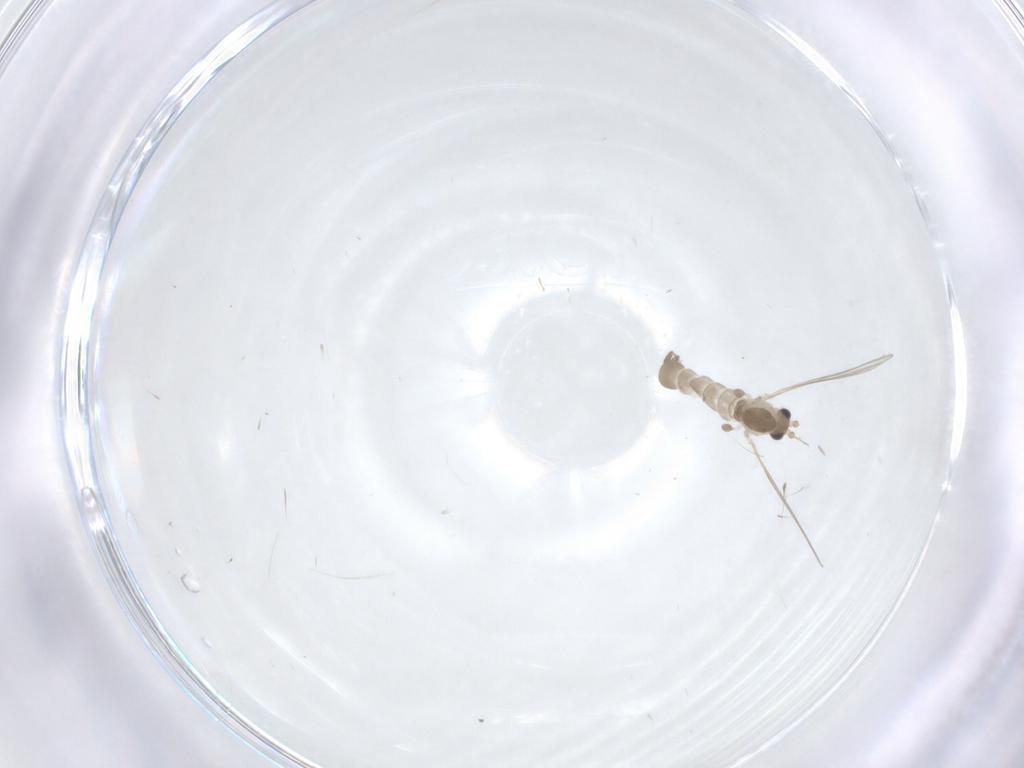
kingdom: Animalia
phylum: Arthropoda
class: Insecta
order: Diptera
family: Psychodidae
